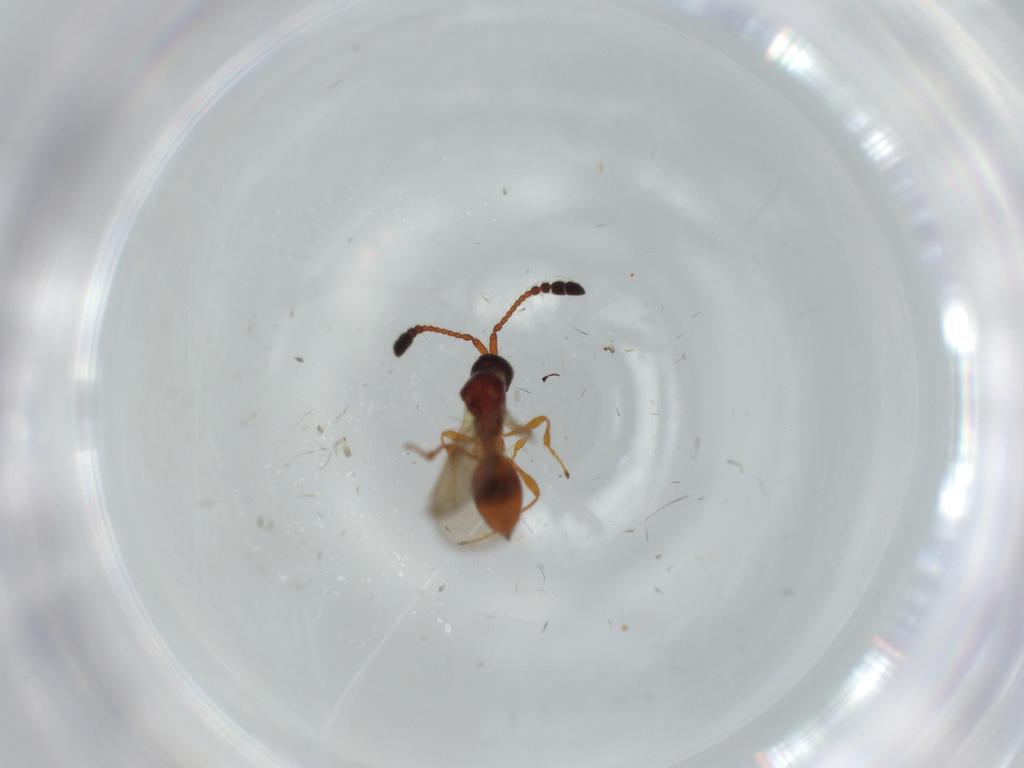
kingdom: Animalia
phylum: Arthropoda
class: Insecta
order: Hymenoptera
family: Diapriidae
